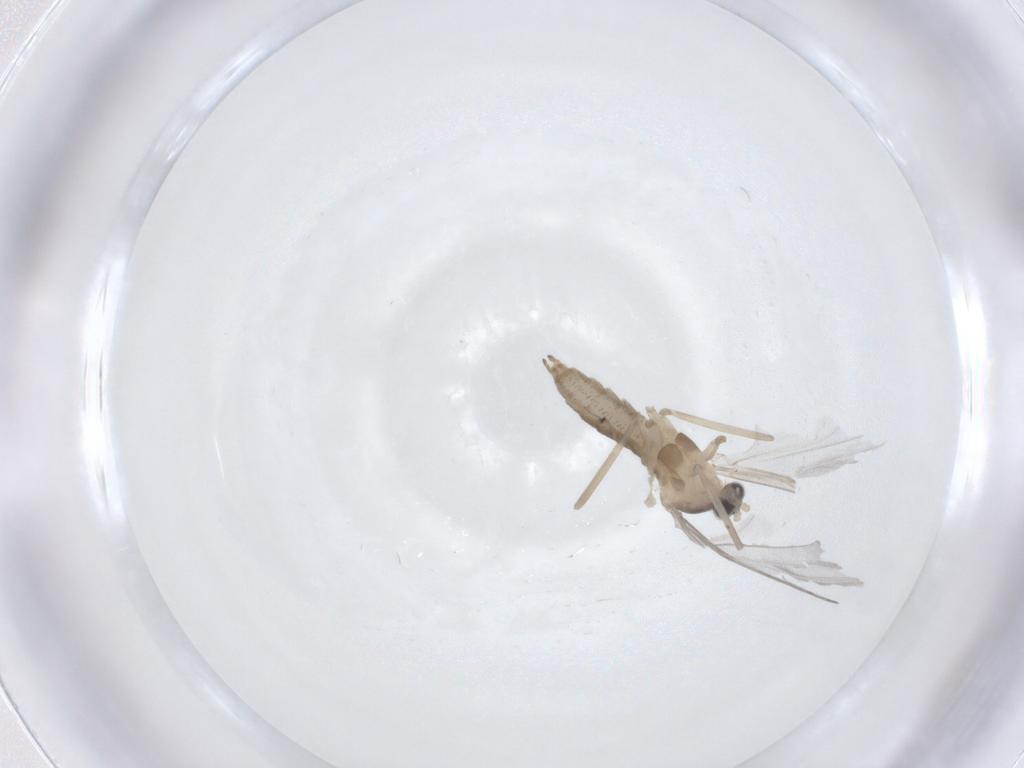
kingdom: Animalia
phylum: Arthropoda
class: Insecta
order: Diptera
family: Cecidomyiidae
